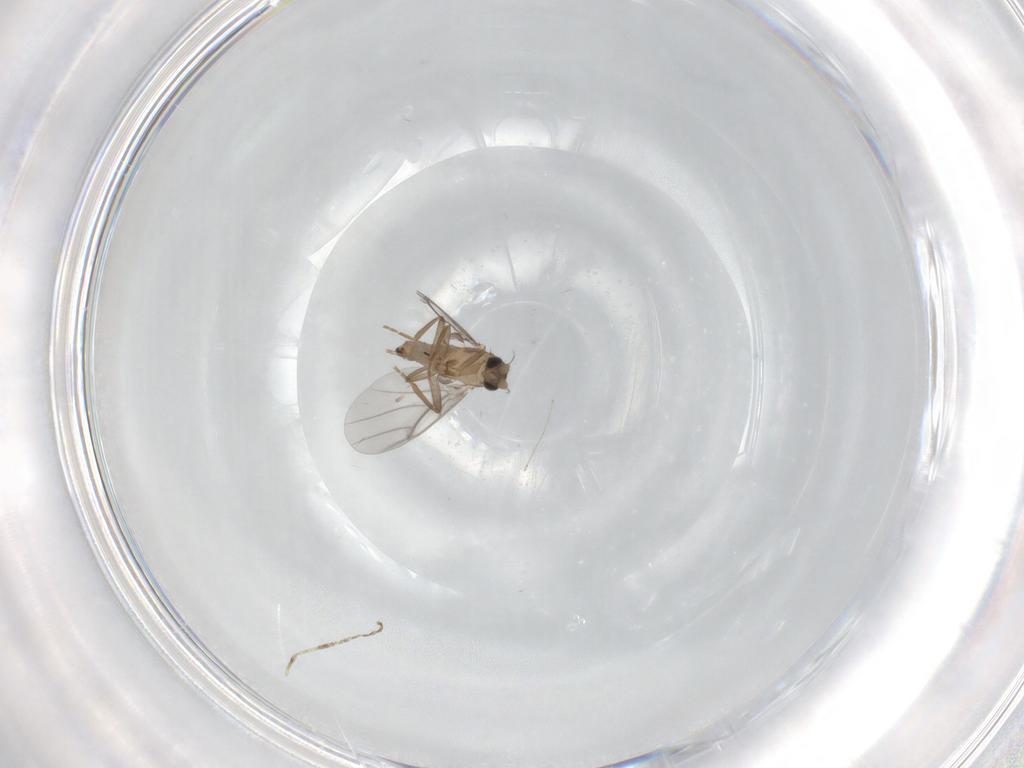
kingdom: Animalia
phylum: Arthropoda
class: Insecta
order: Diptera
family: Cecidomyiidae
